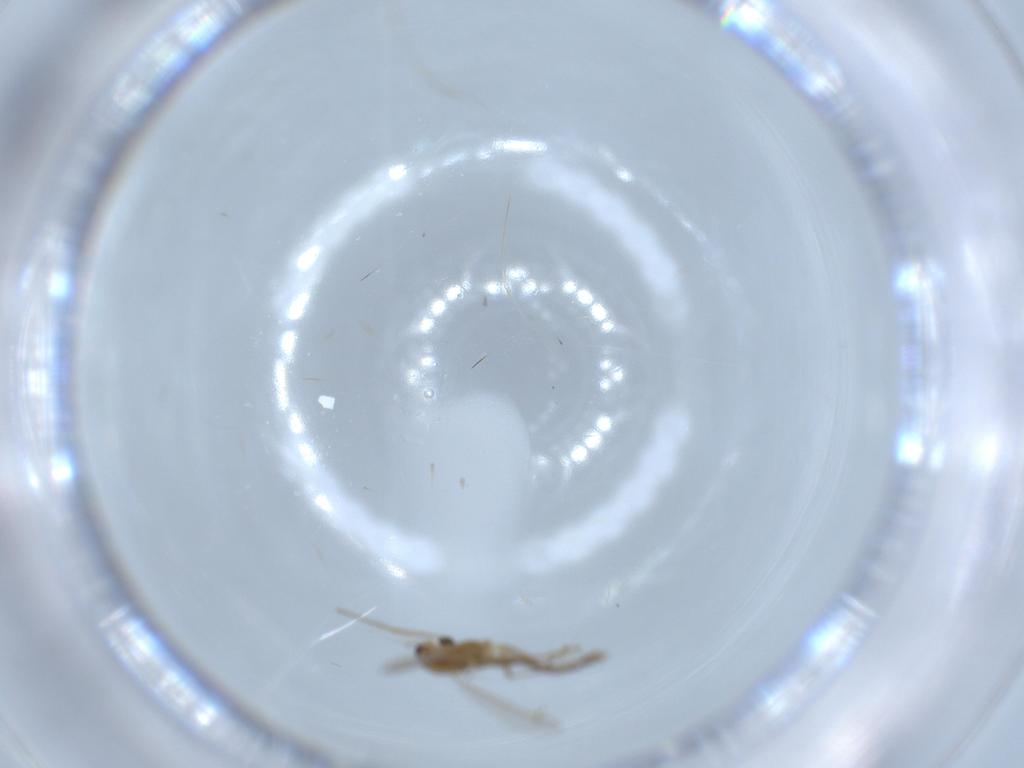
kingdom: Animalia
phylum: Arthropoda
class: Insecta
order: Diptera
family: Chironomidae
